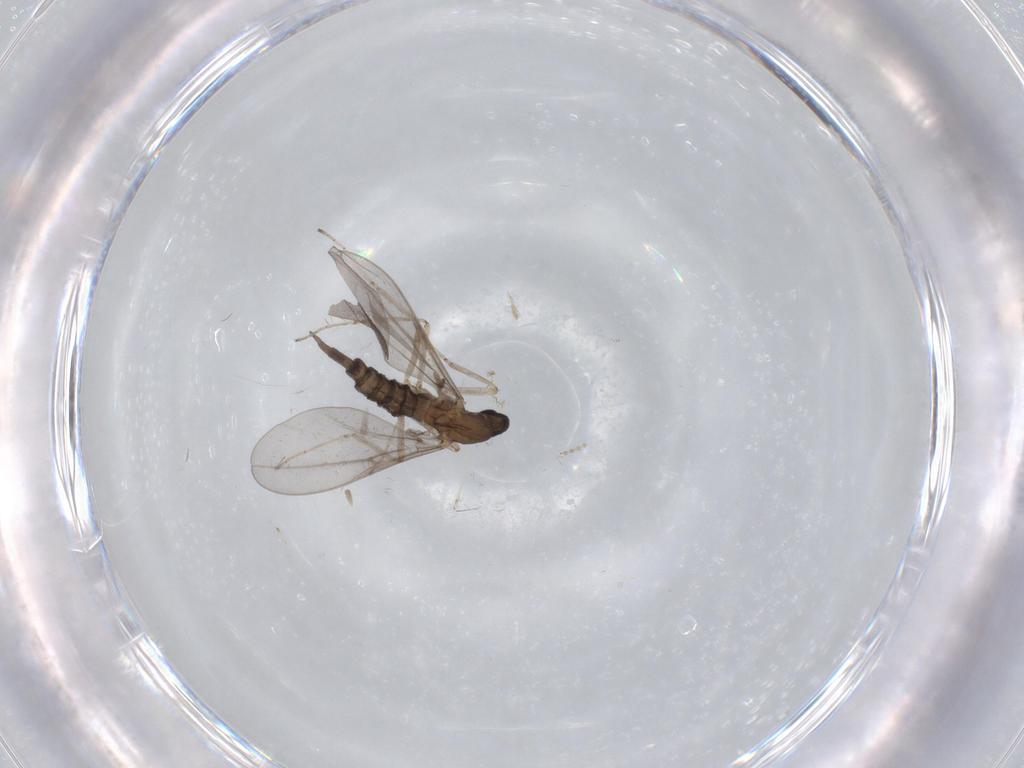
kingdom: Animalia
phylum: Arthropoda
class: Insecta
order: Diptera
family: Cecidomyiidae
